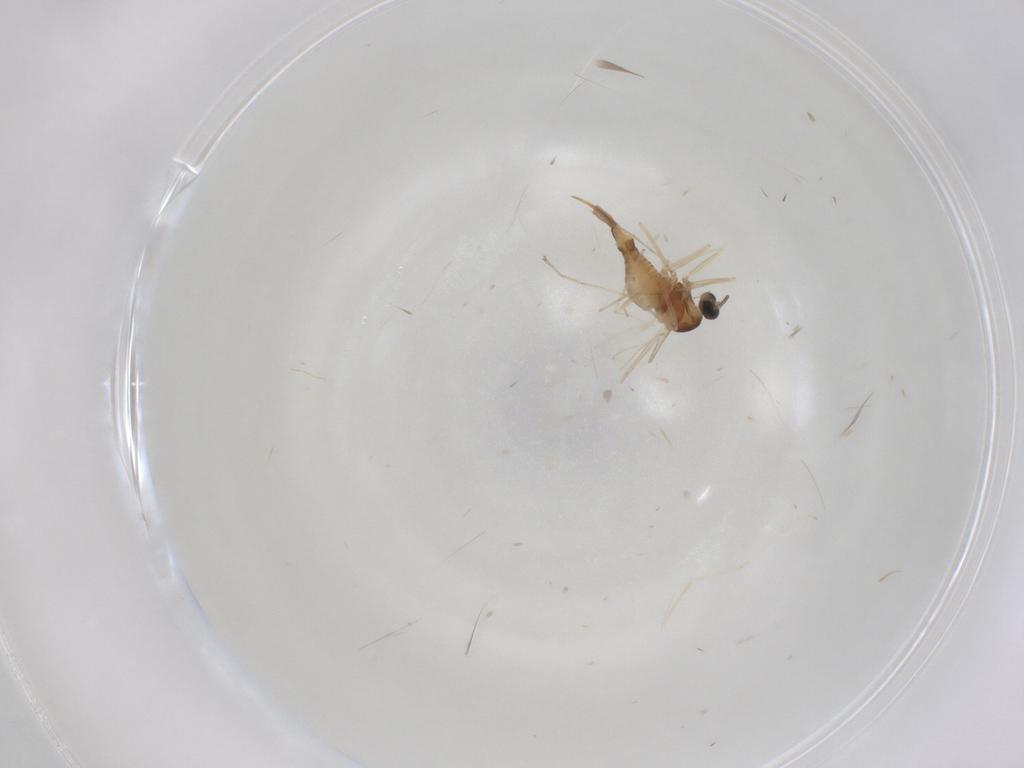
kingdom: Animalia
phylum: Arthropoda
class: Insecta
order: Diptera
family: Cecidomyiidae
